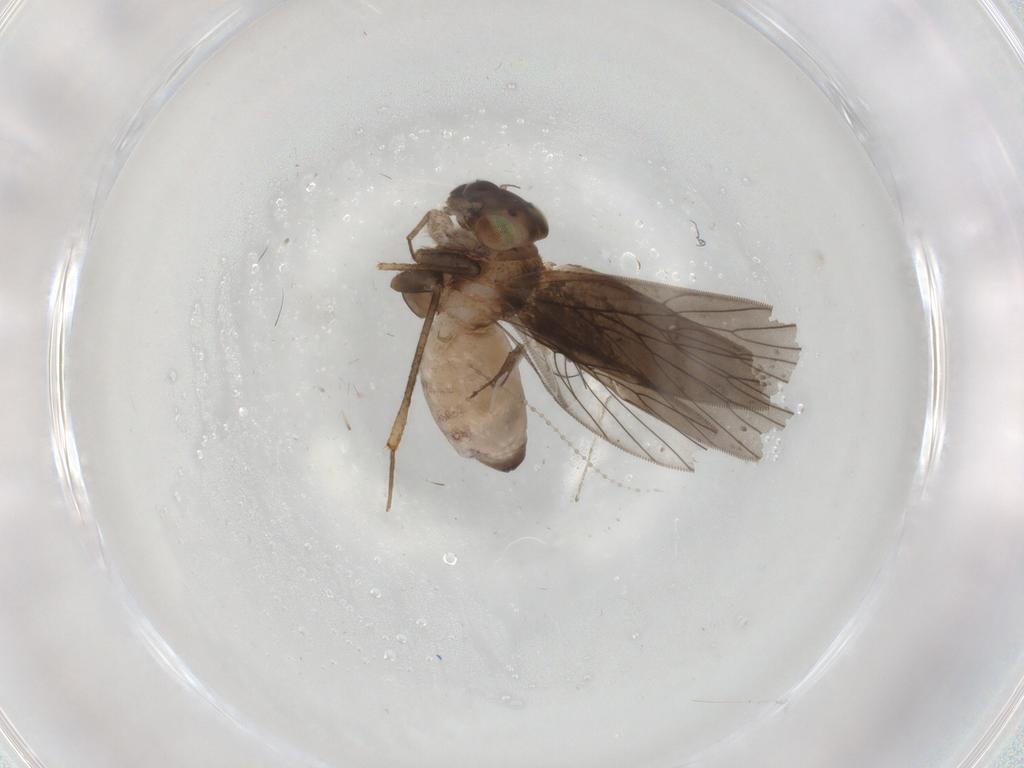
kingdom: Animalia
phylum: Arthropoda
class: Insecta
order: Psocodea
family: Lepidopsocidae
